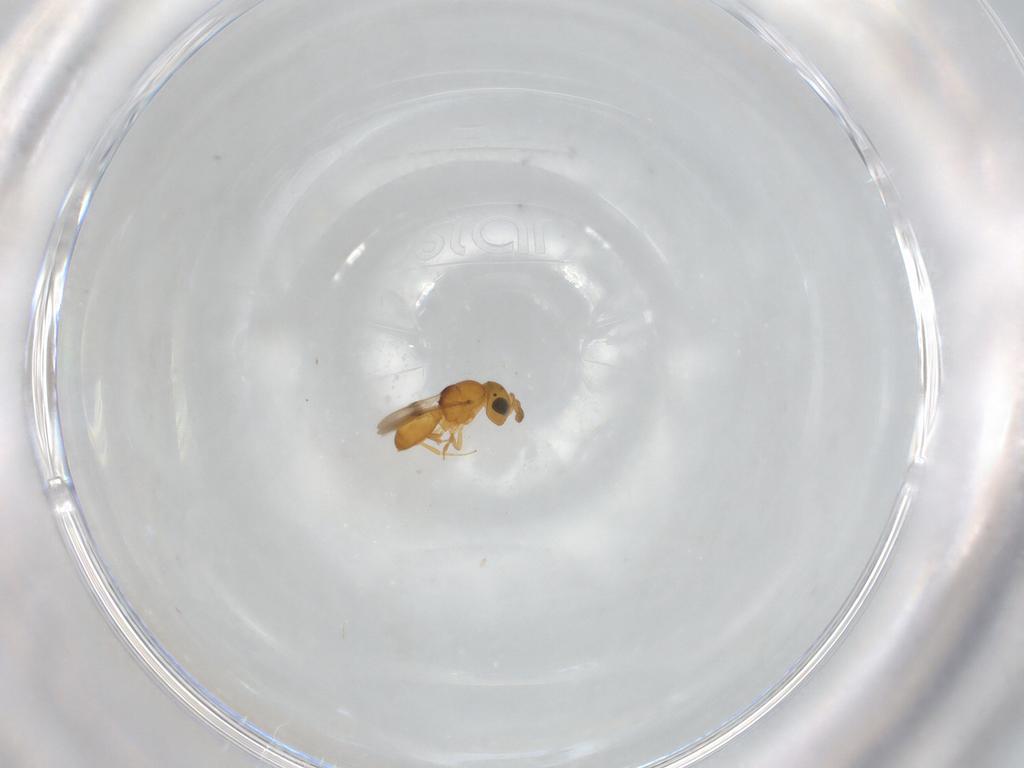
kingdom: Animalia
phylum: Arthropoda
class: Insecta
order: Hymenoptera
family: Scelionidae
